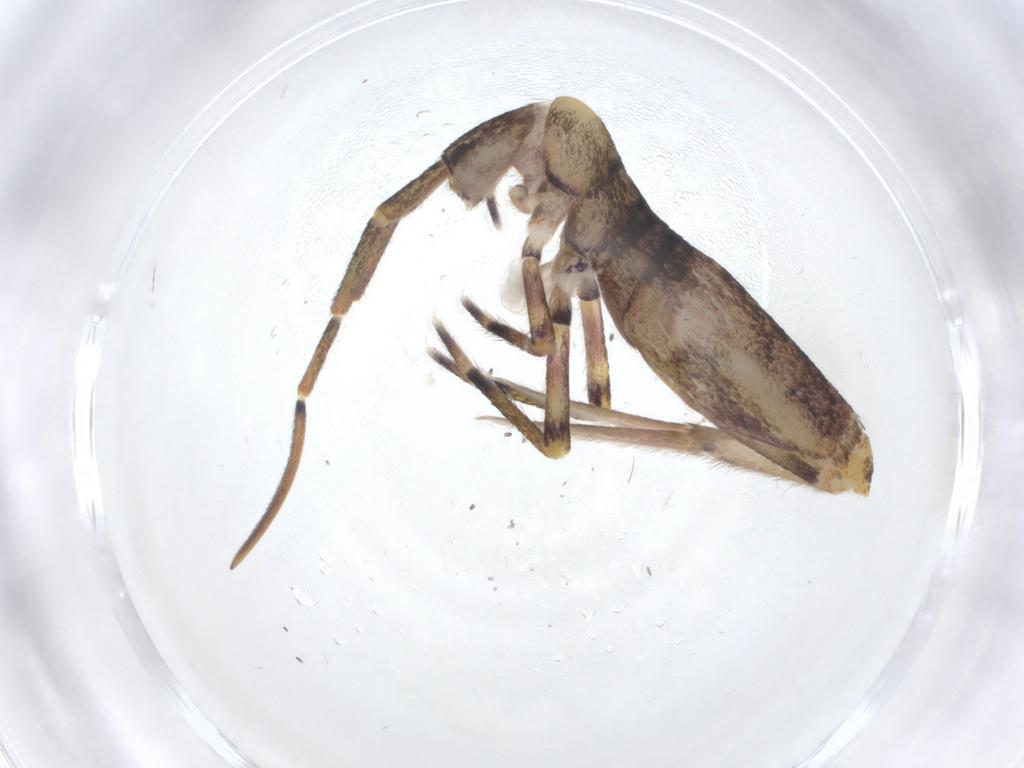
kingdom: Animalia
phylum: Arthropoda
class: Collembola
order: Entomobryomorpha
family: Entomobryidae
